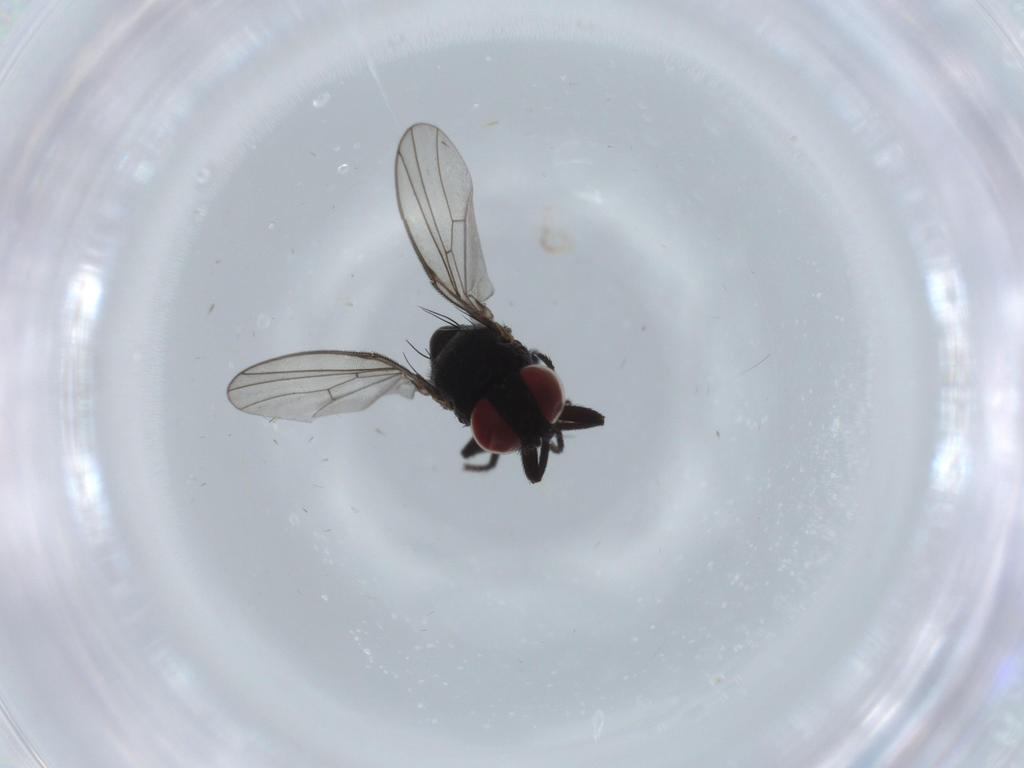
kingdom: Animalia
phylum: Arthropoda
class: Insecta
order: Diptera
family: Agromyzidae
